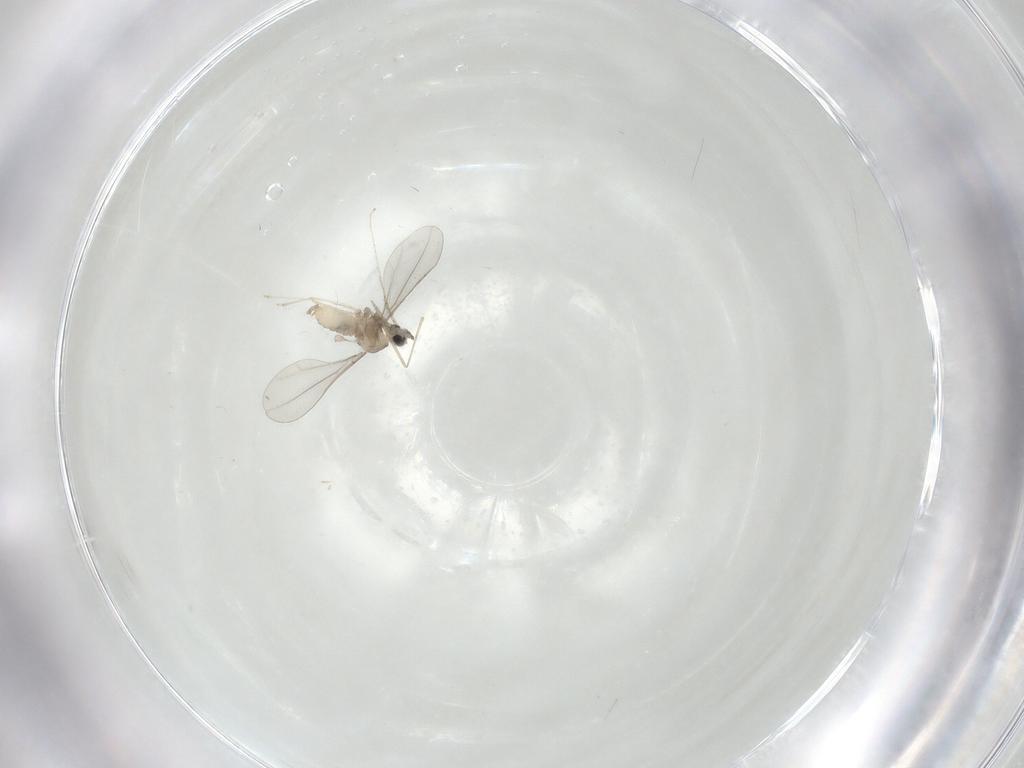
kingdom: Animalia
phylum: Arthropoda
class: Insecta
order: Diptera
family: Cecidomyiidae
